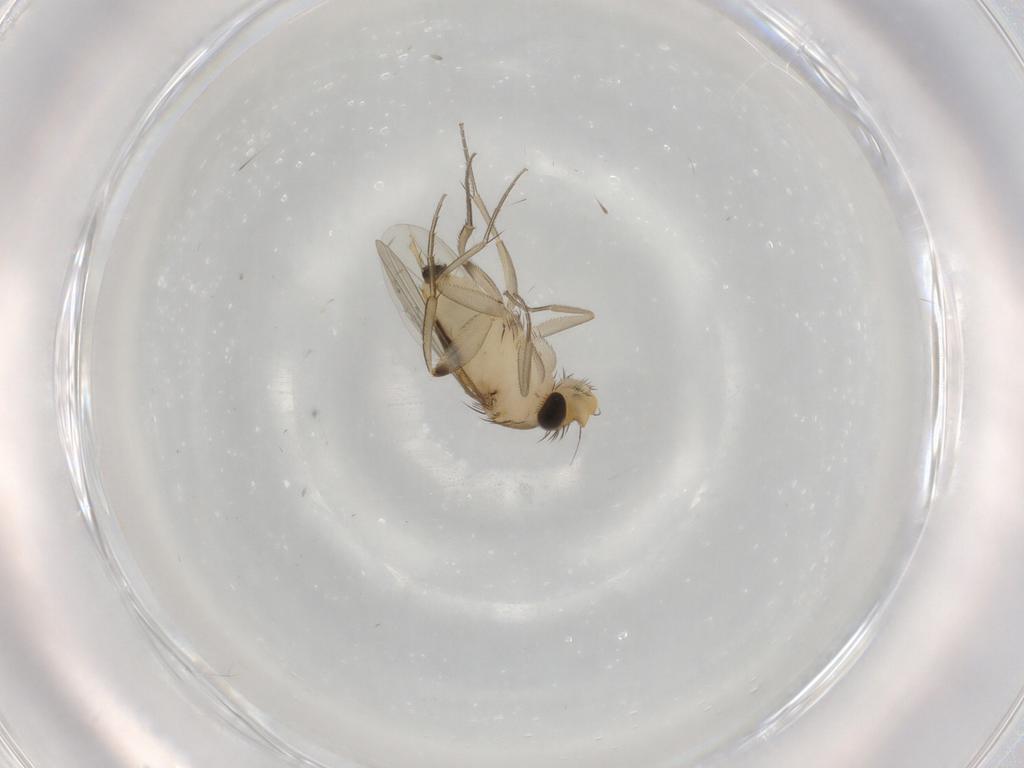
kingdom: Animalia
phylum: Arthropoda
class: Insecta
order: Diptera
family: Phoridae
